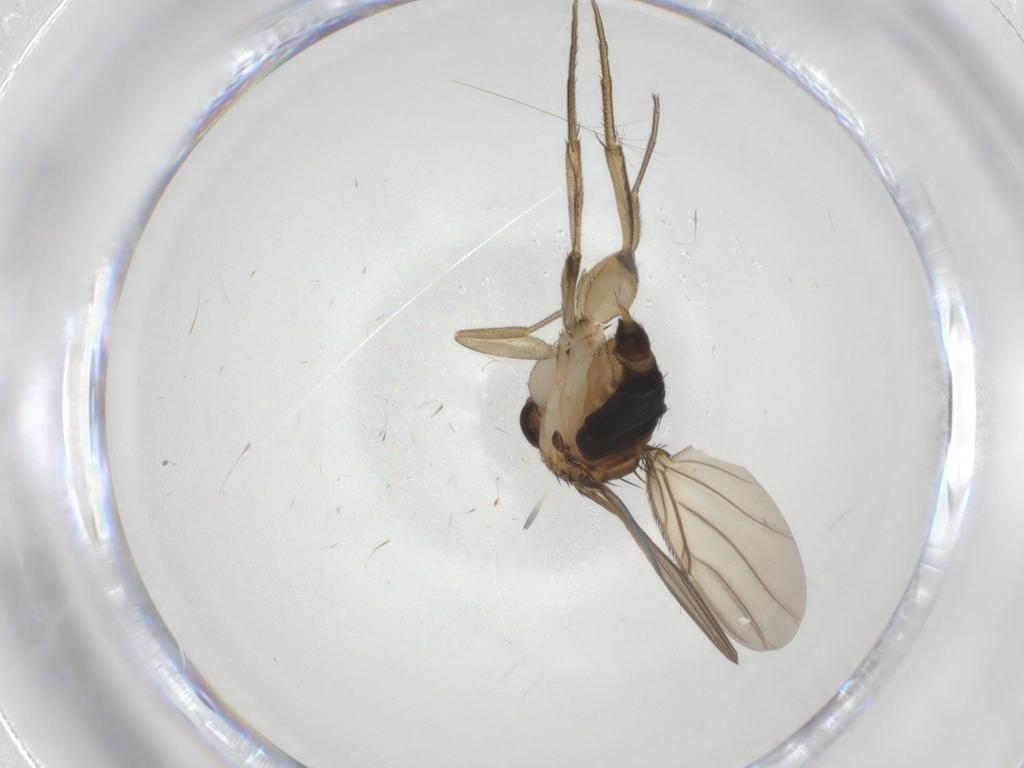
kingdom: Animalia
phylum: Arthropoda
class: Insecta
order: Diptera
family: Phoridae
